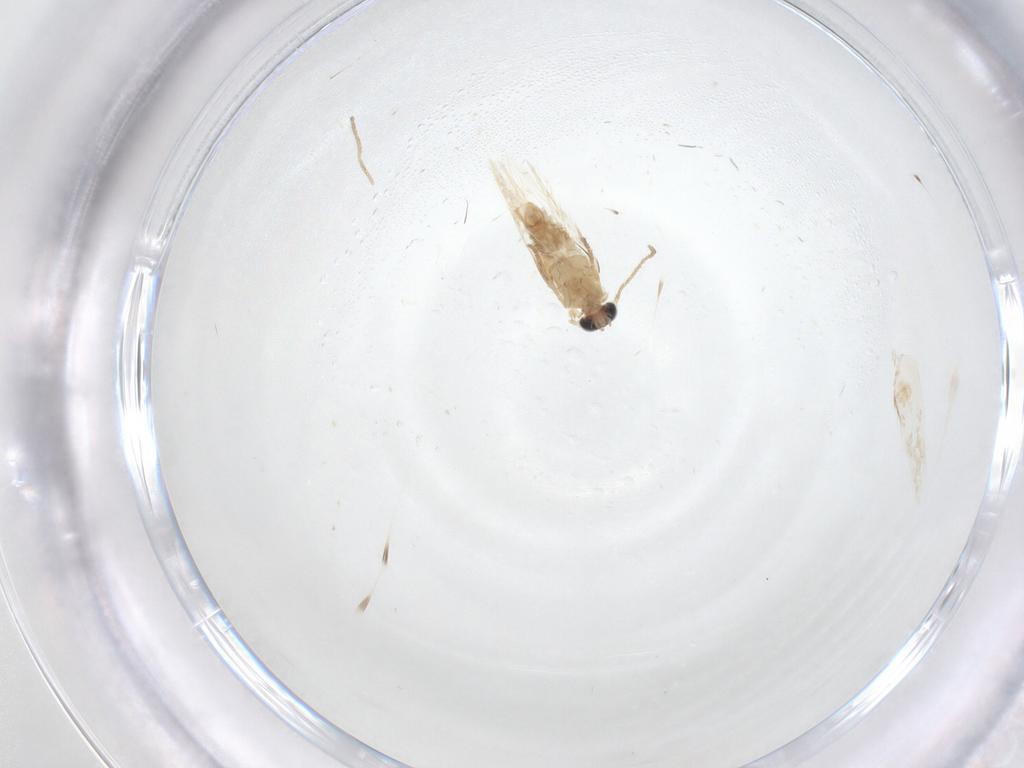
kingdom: Animalia
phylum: Arthropoda
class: Insecta
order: Lepidoptera
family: Nepticulidae
